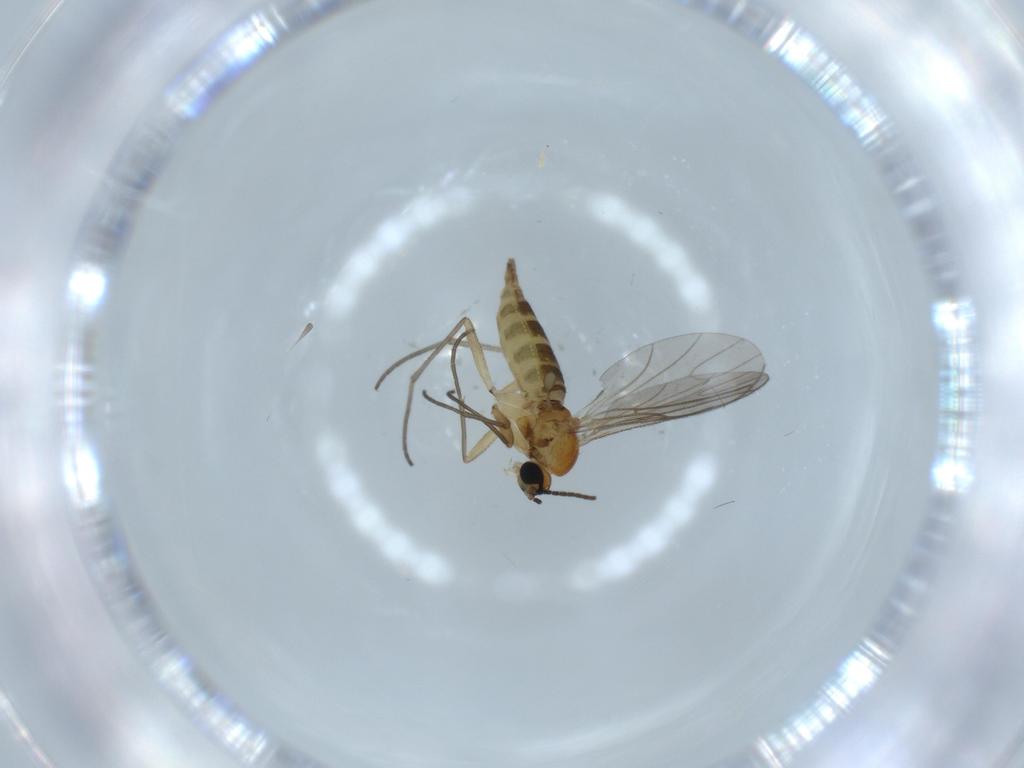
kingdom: Animalia
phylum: Arthropoda
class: Insecta
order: Diptera
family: Sciaridae
